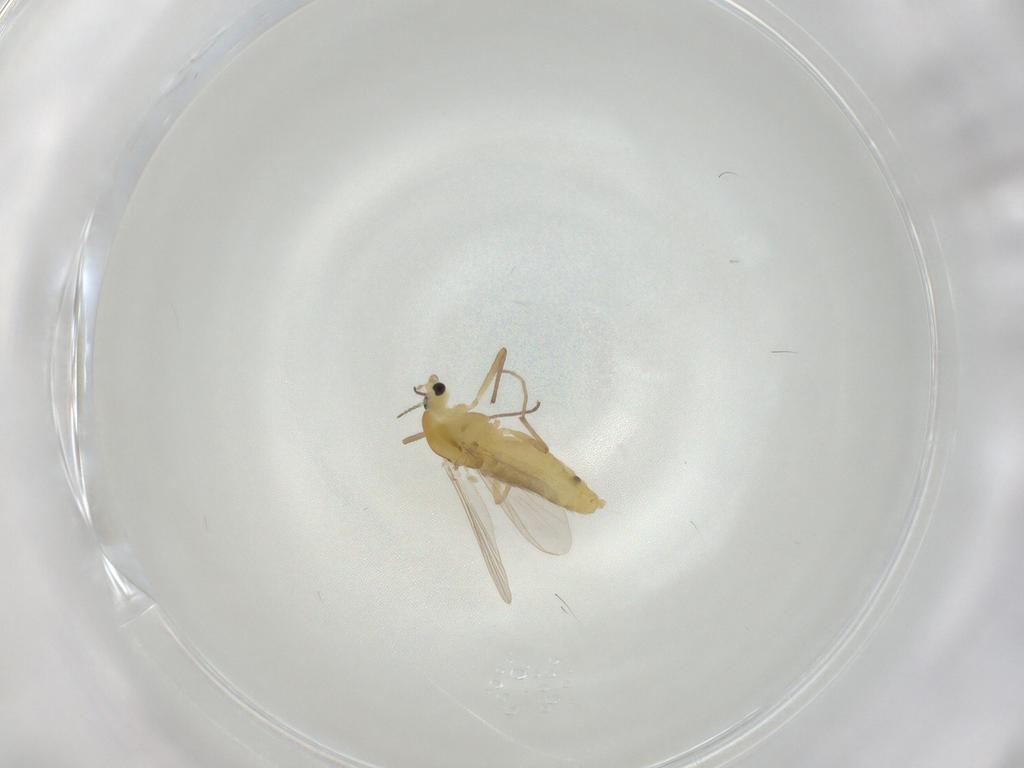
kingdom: Animalia
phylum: Arthropoda
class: Insecta
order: Diptera
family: Chironomidae
